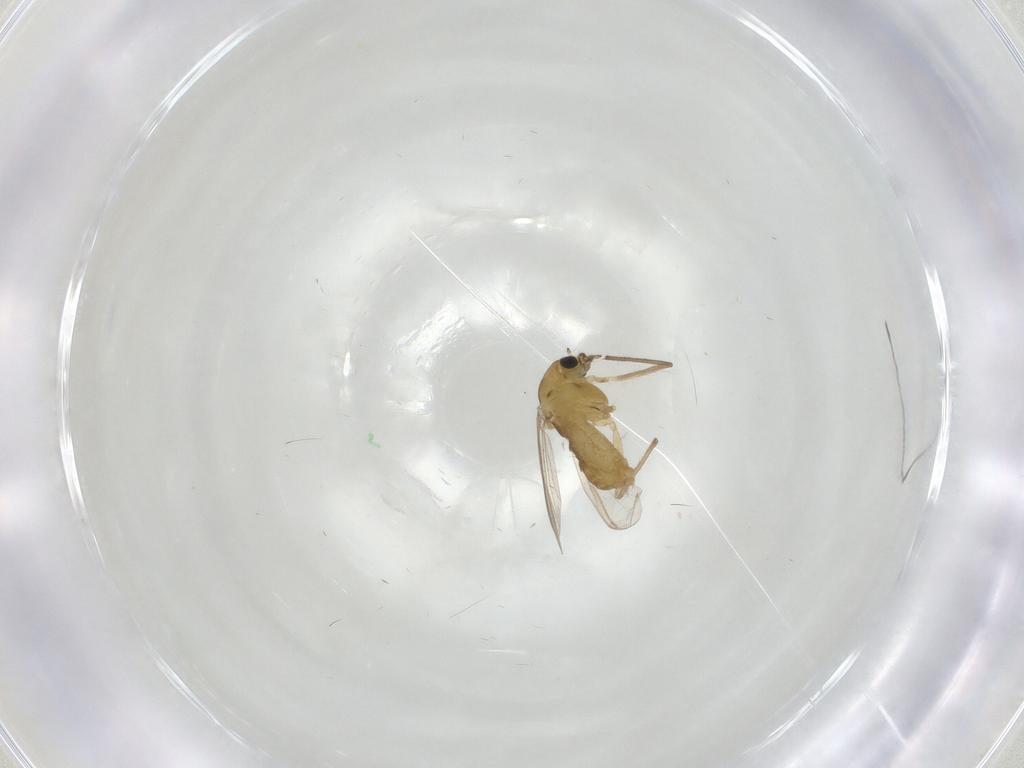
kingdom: Animalia
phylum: Arthropoda
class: Insecta
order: Diptera
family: Chironomidae
